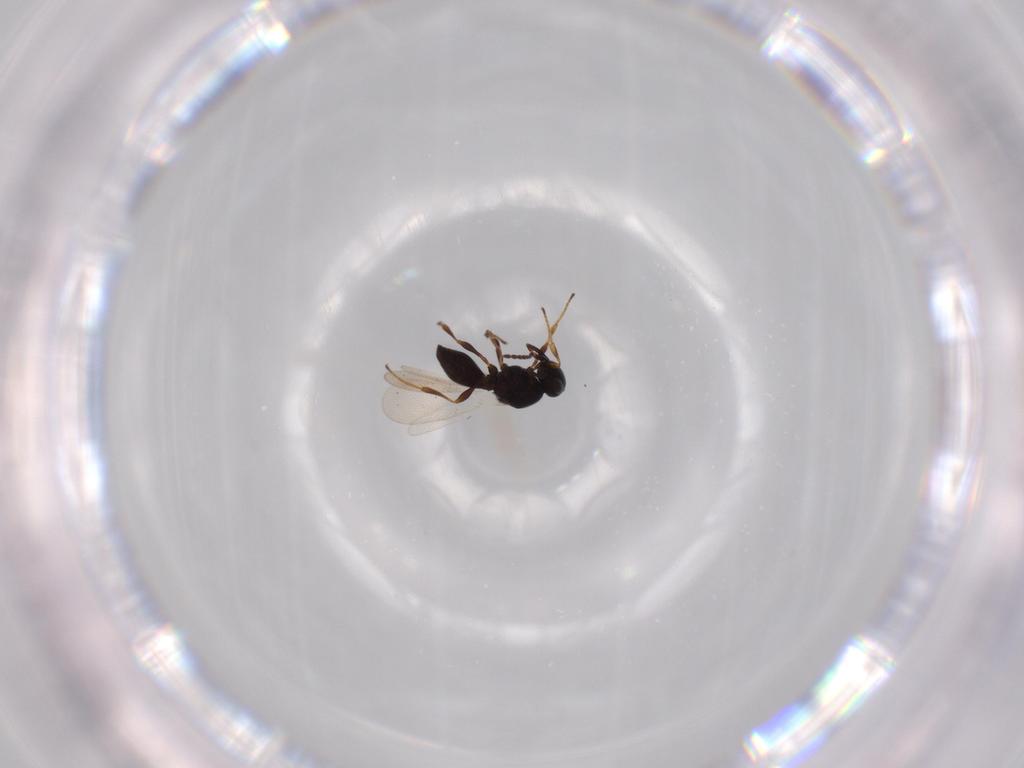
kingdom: Animalia
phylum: Arthropoda
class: Insecta
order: Hymenoptera
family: Platygastridae
